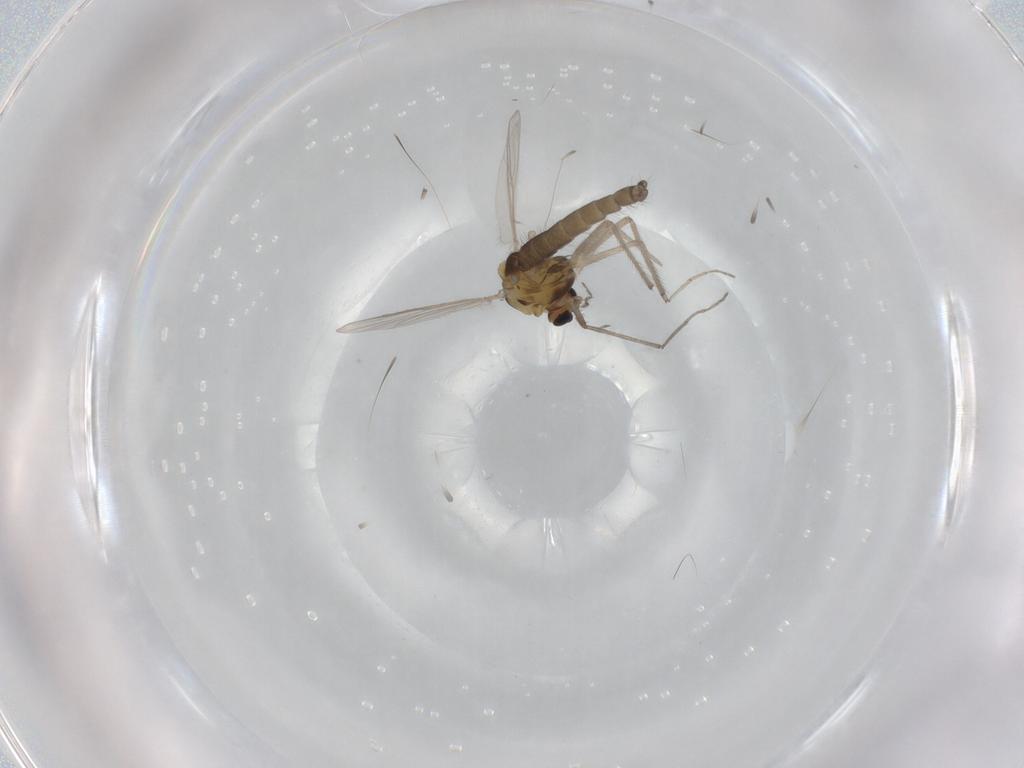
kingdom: Animalia
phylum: Arthropoda
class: Insecta
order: Diptera
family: Chironomidae
